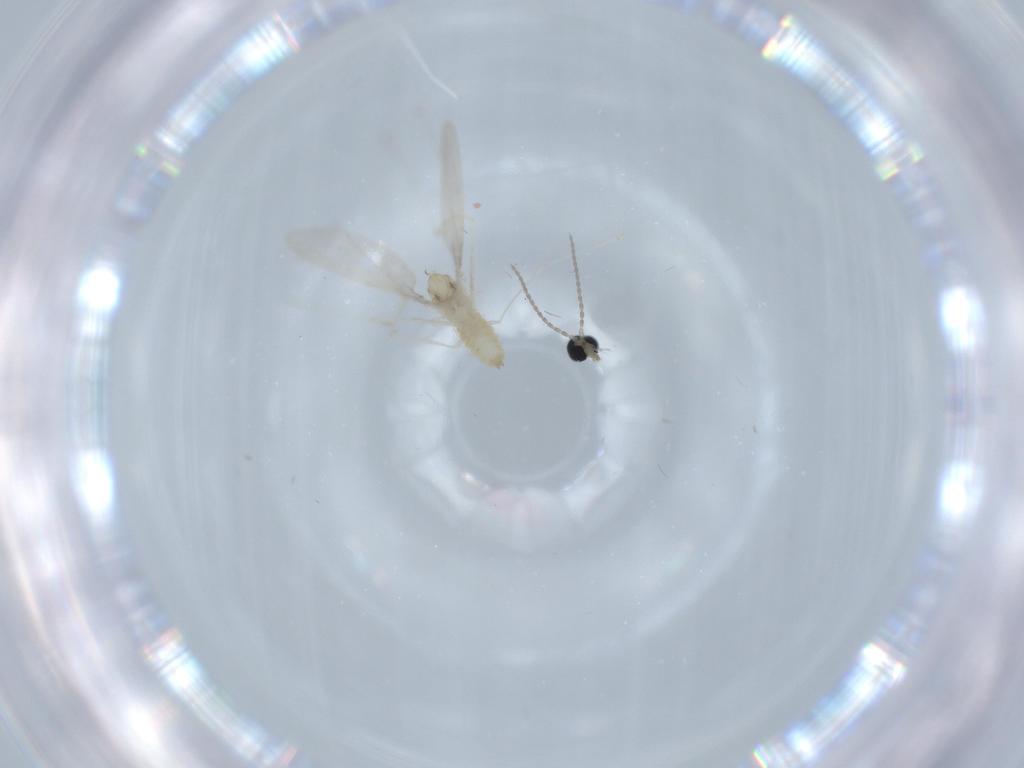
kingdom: Animalia
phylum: Arthropoda
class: Insecta
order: Diptera
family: Cecidomyiidae
